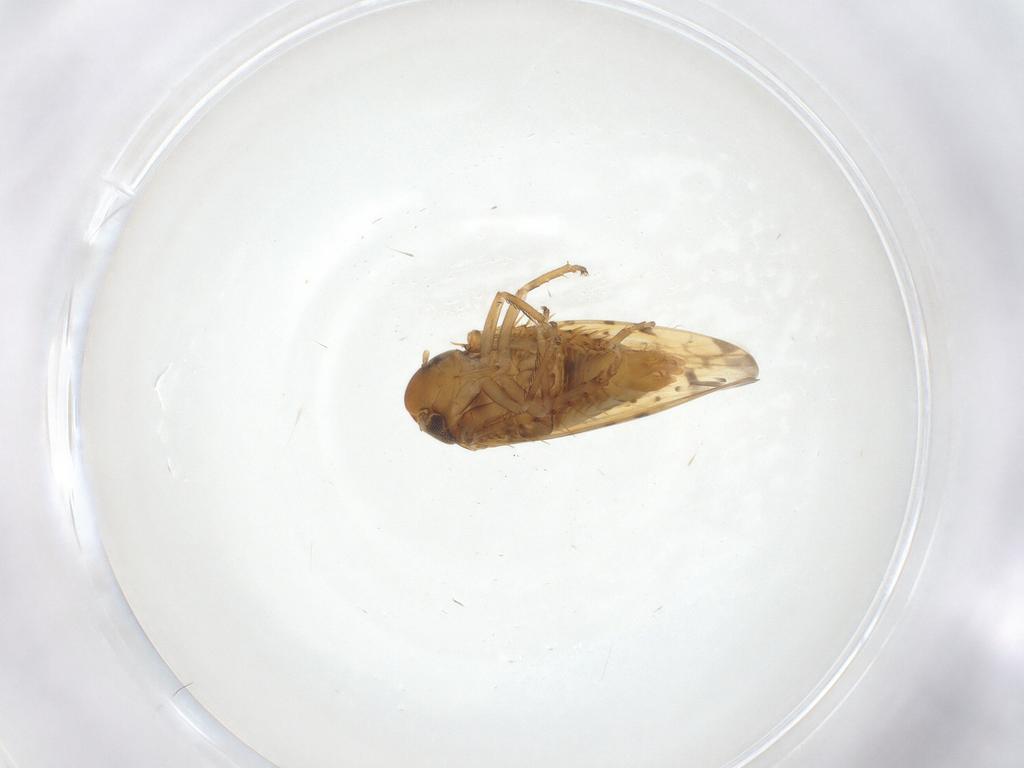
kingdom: Animalia
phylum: Arthropoda
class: Insecta
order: Hemiptera
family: Cicadellidae
